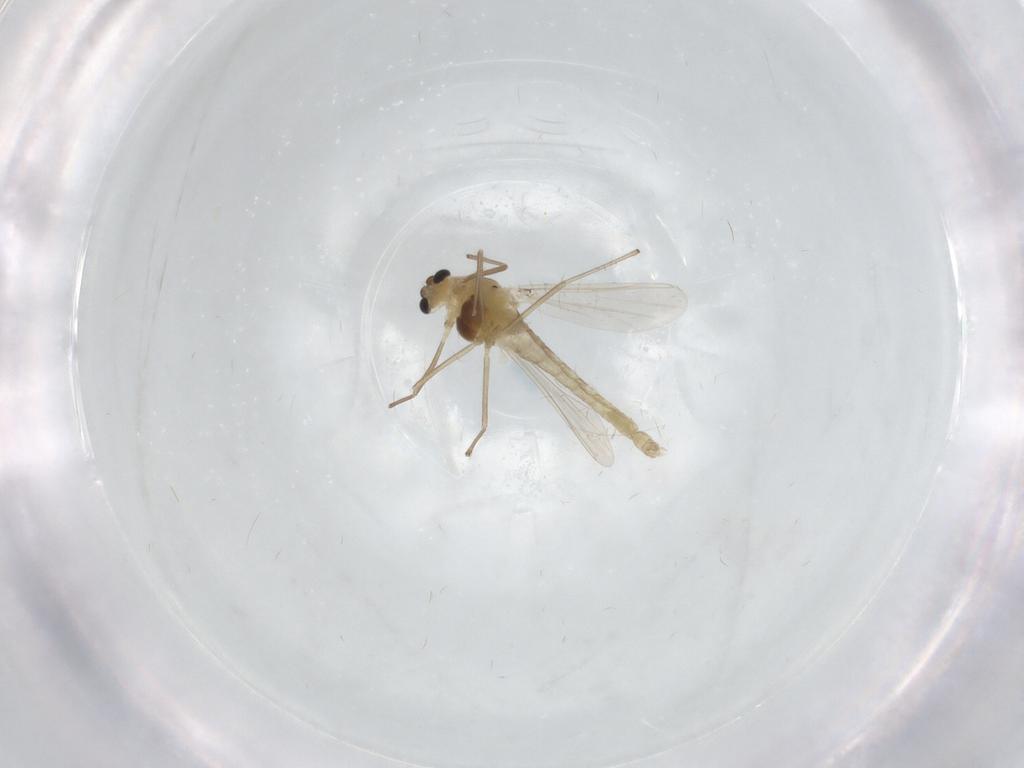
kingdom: Animalia
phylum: Arthropoda
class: Insecta
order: Diptera
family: Chironomidae
